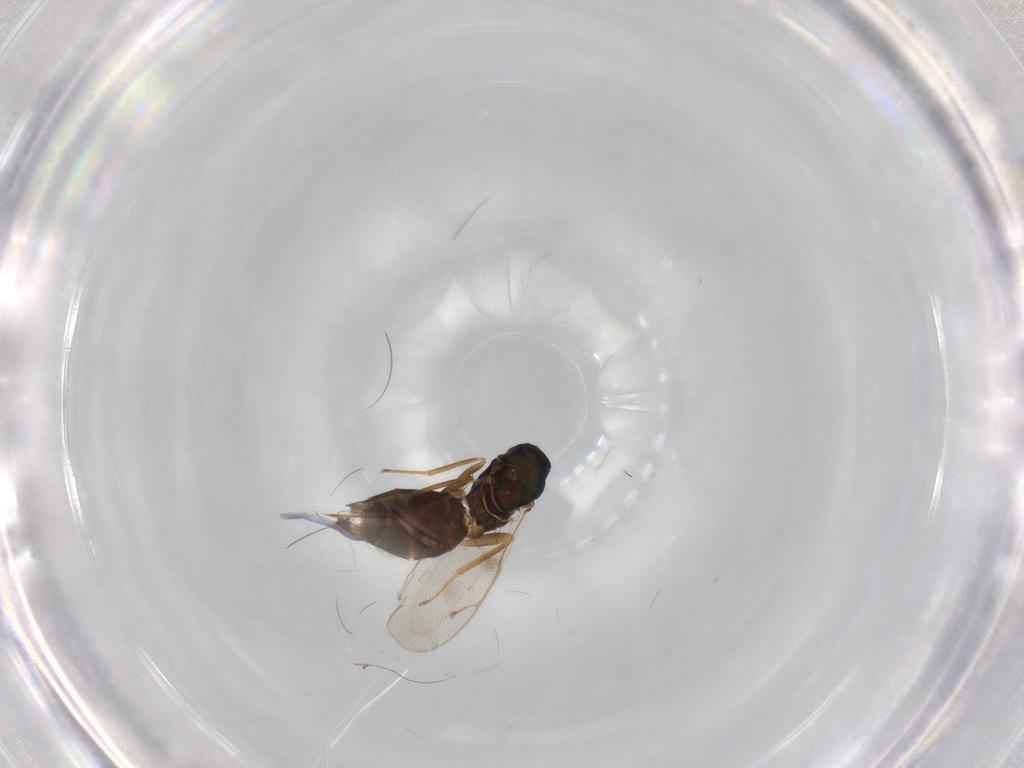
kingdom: Animalia
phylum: Arthropoda
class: Insecta
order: Hymenoptera
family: Pteromalidae
